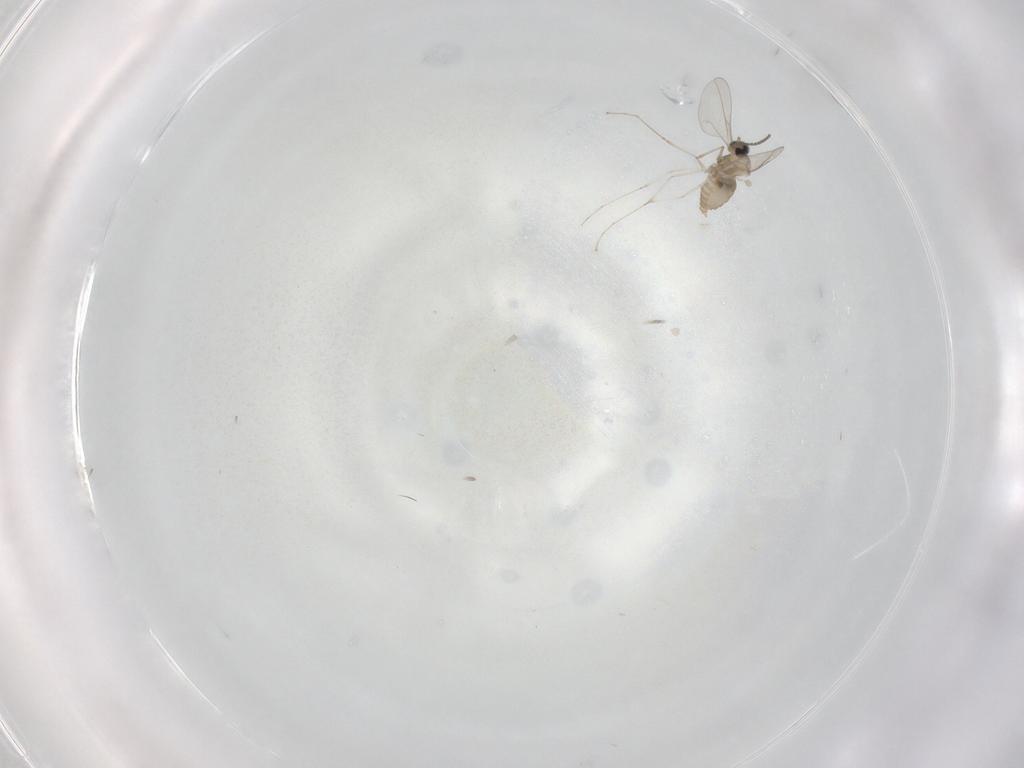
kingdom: Animalia
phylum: Arthropoda
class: Insecta
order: Diptera
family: Cecidomyiidae
